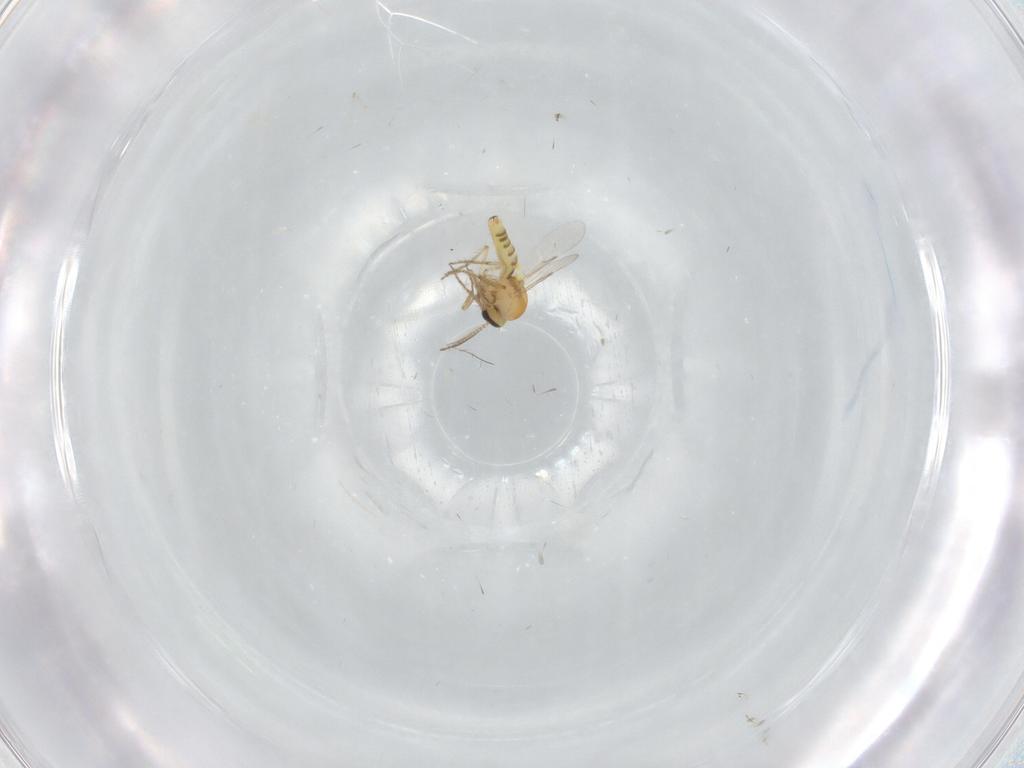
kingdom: Animalia
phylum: Arthropoda
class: Insecta
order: Diptera
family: Ceratopogonidae
